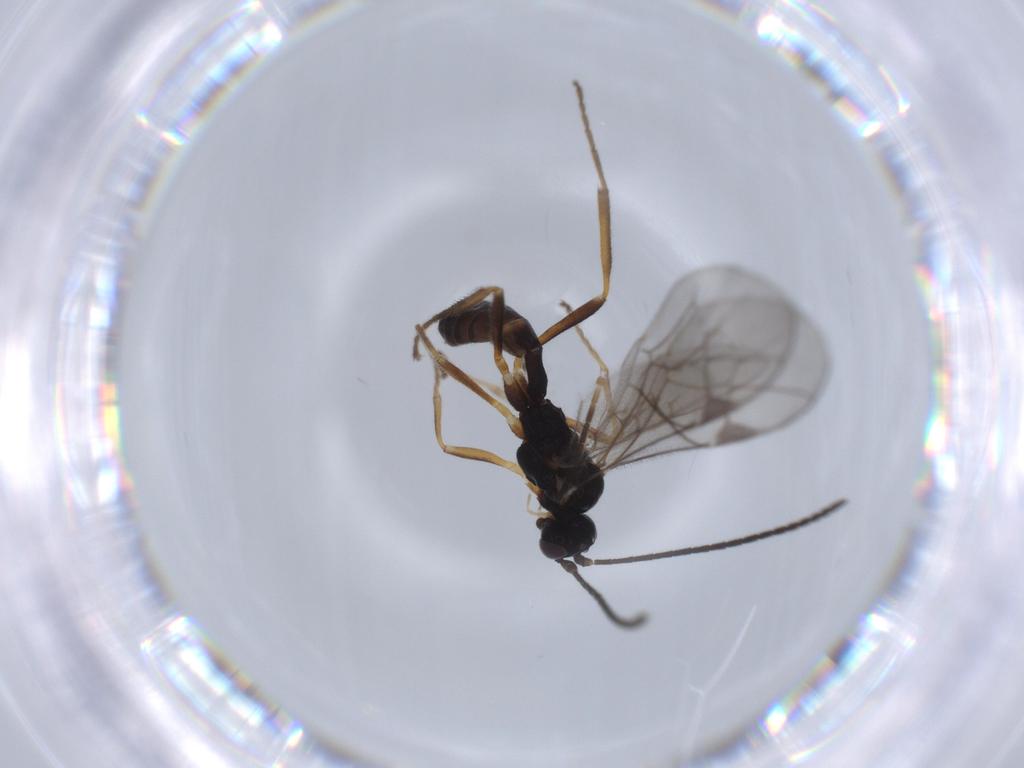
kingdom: Animalia
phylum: Arthropoda
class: Insecta
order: Hymenoptera
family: Ichneumonidae
